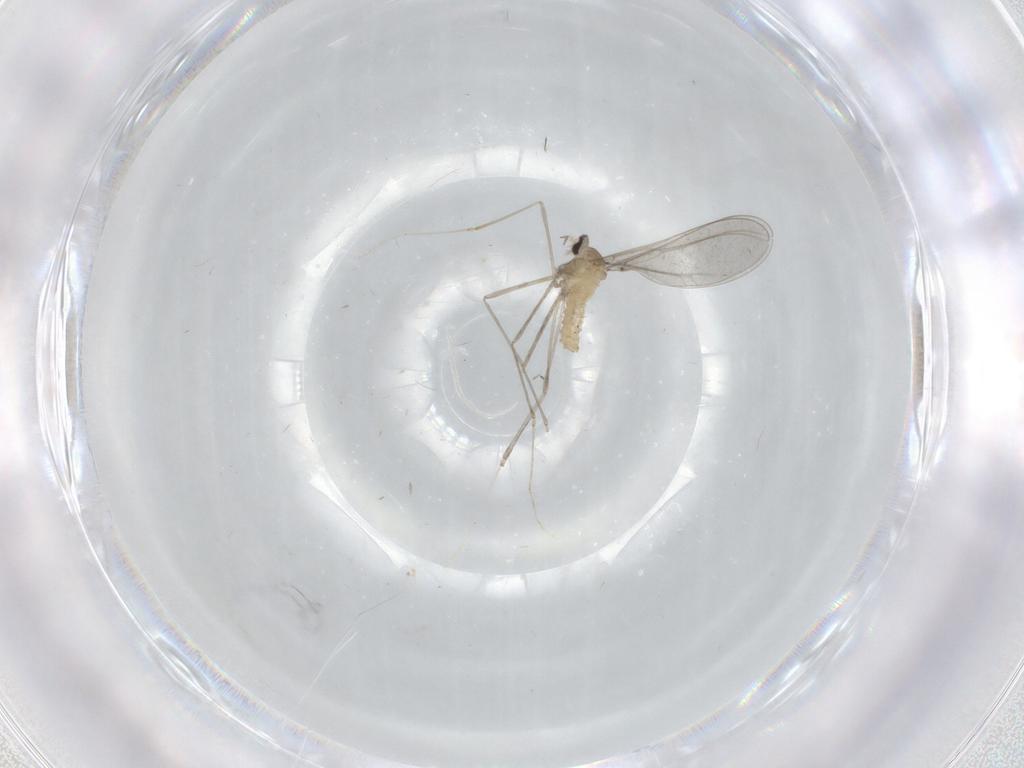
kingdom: Animalia
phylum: Arthropoda
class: Insecta
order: Diptera
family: Cecidomyiidae
